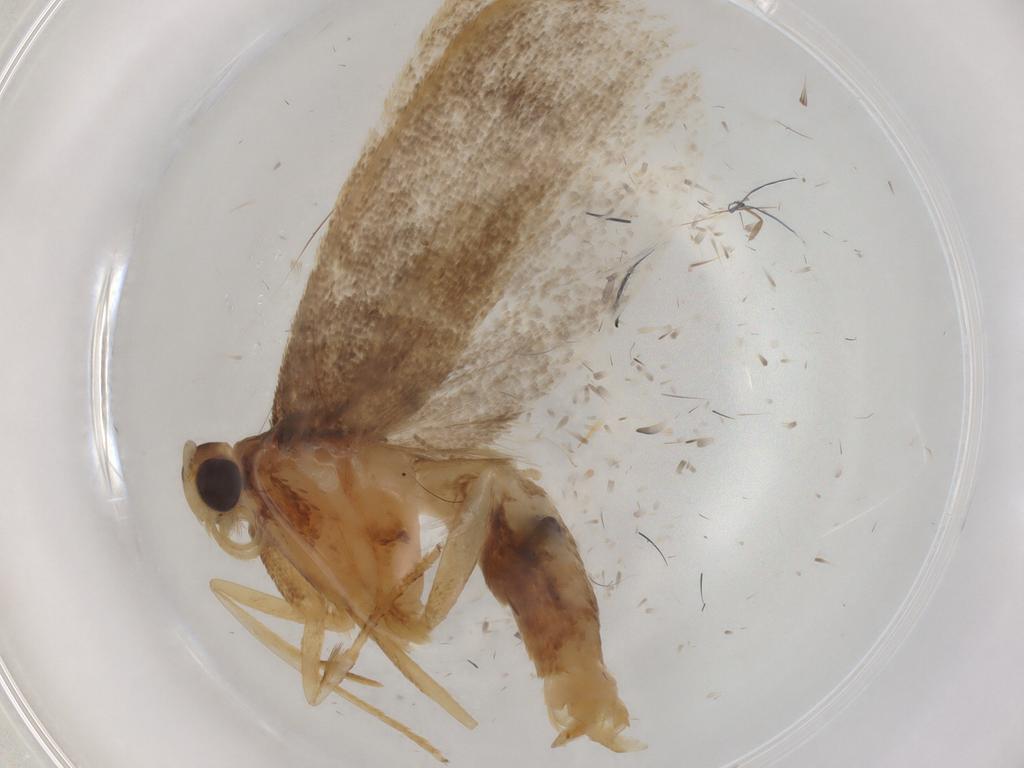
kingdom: Animalia
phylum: Arthropoda
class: Insecta
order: Lepidoptera
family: Lecithoceridae
